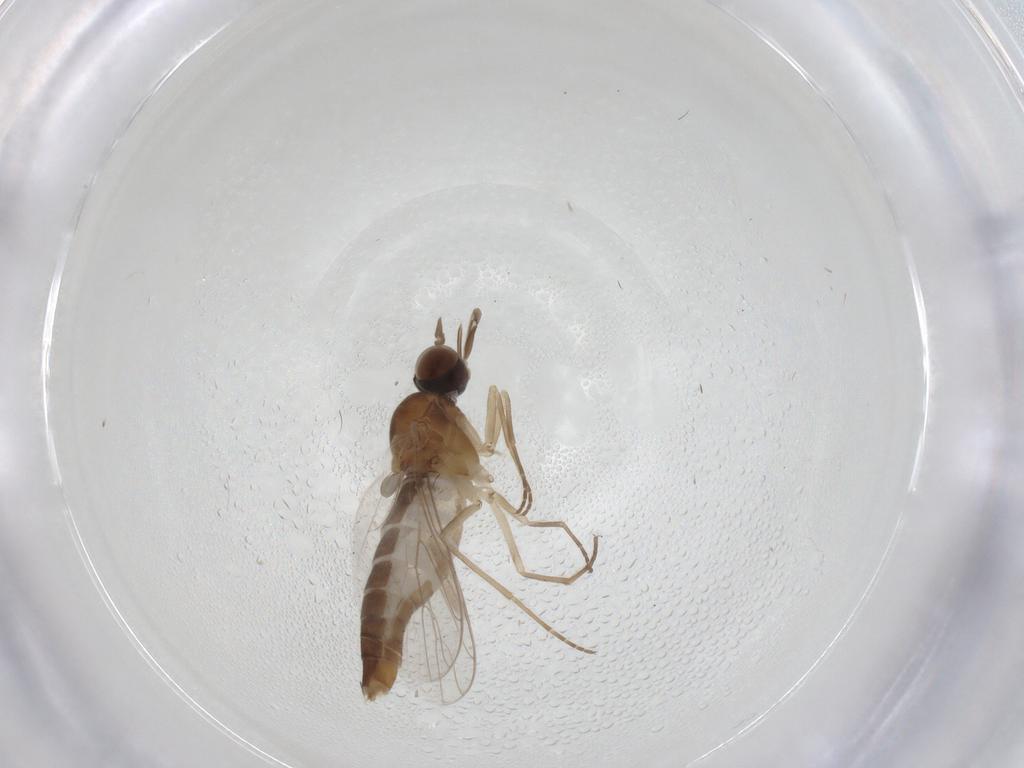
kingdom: Animalia
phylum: Arthropoda
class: Insecta
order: Diptera
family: Scenopinidae
